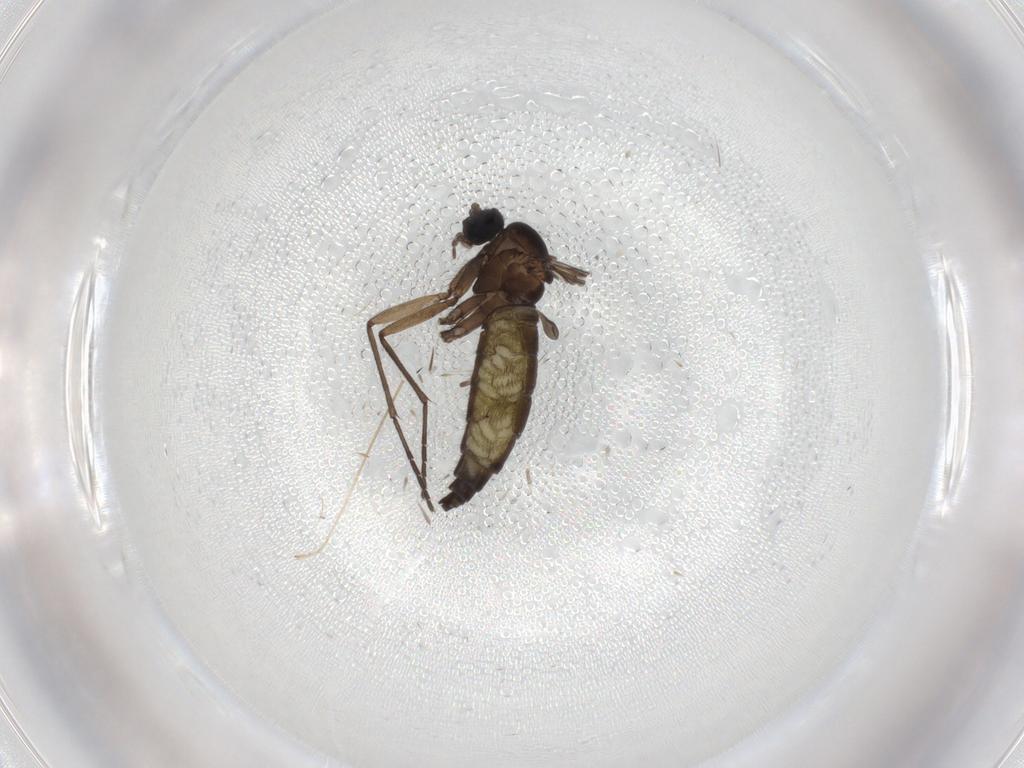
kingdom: Animalia
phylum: Arthropoda
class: Insecta
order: Diptera
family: Limoniidae
